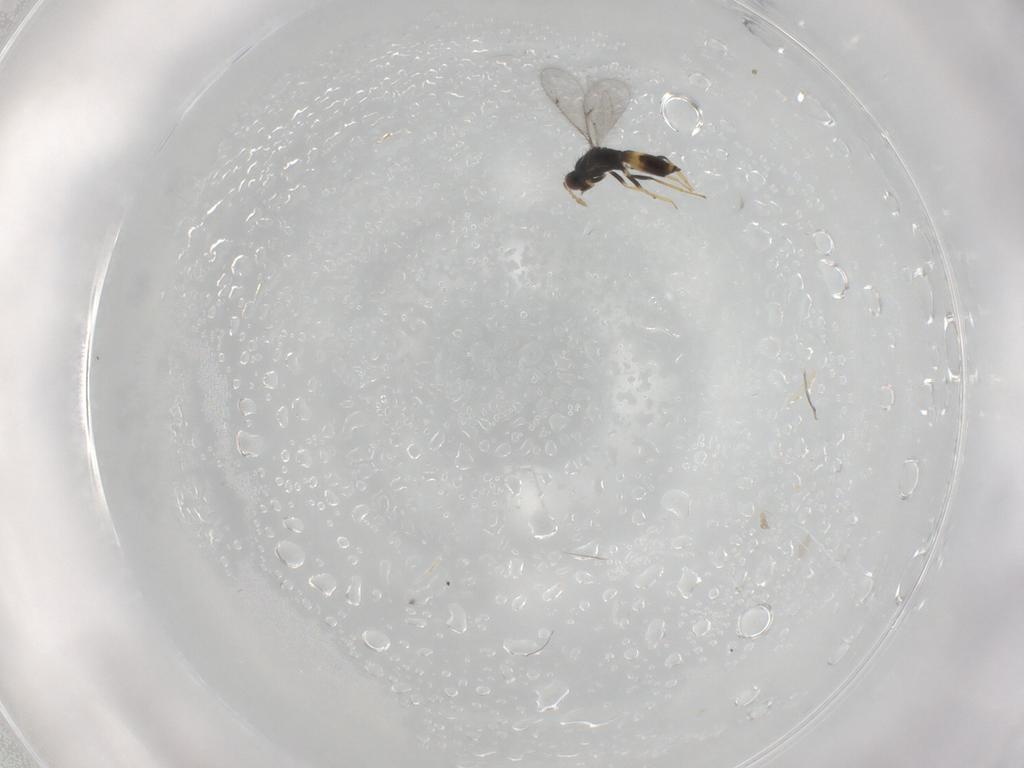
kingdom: Animalia
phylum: Arthropoda
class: Insecta
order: Hymenoptera
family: Eulophidae
